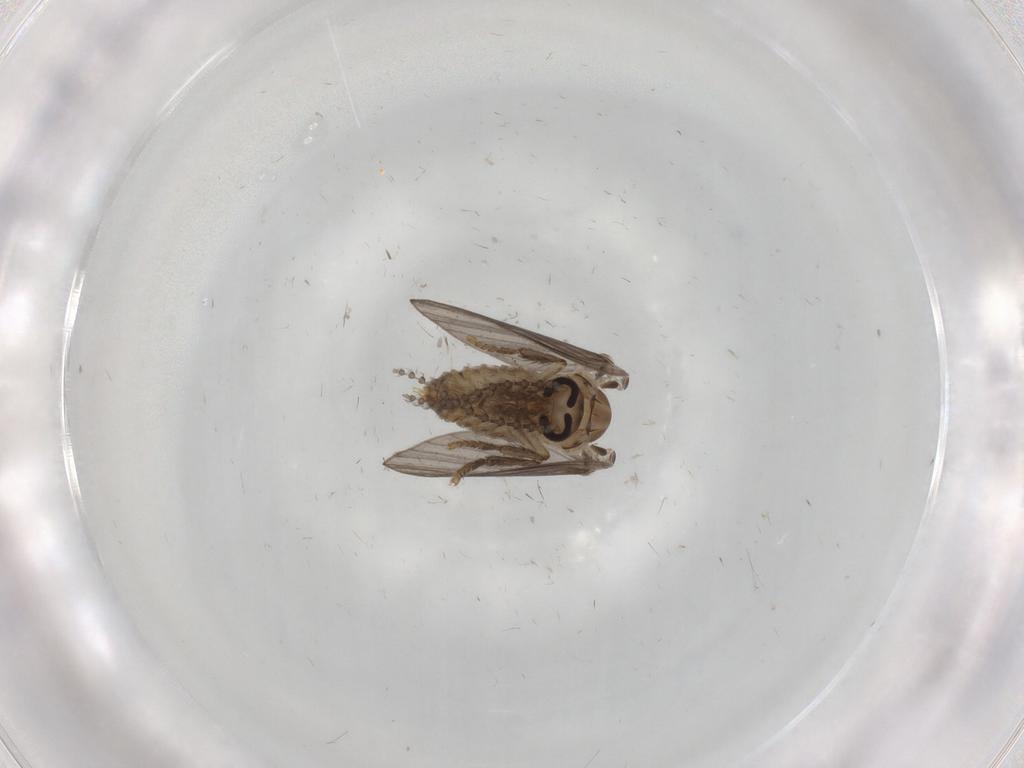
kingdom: Animalia
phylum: Arthropoda
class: Insecta
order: Diptera
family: Psychodidae
